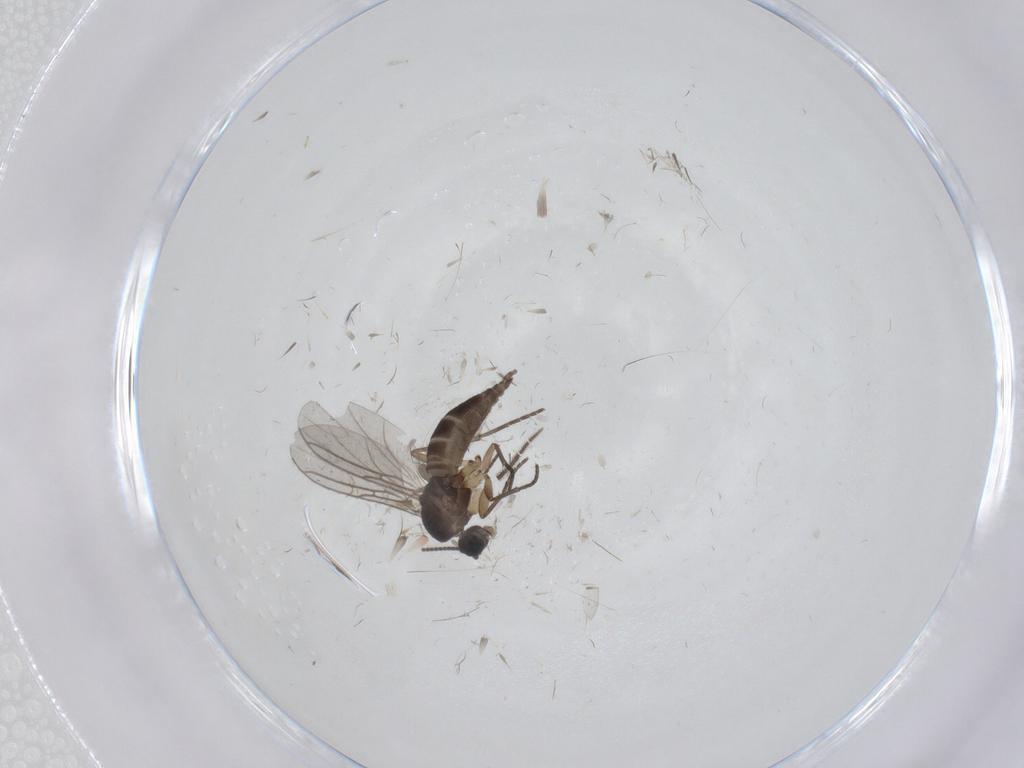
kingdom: Animalia
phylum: Arthropoda
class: Insecta
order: Diptera
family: Sciaridae
